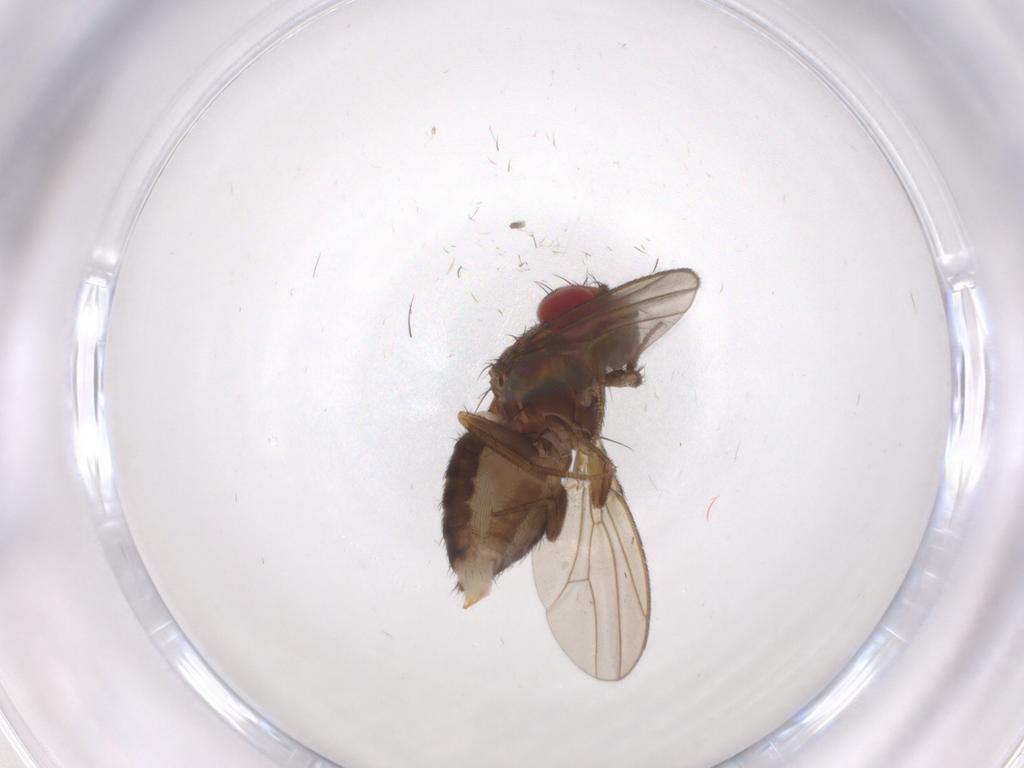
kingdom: Animalia
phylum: Arthropoda
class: Insecta
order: Diptera
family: Drosophilidae
